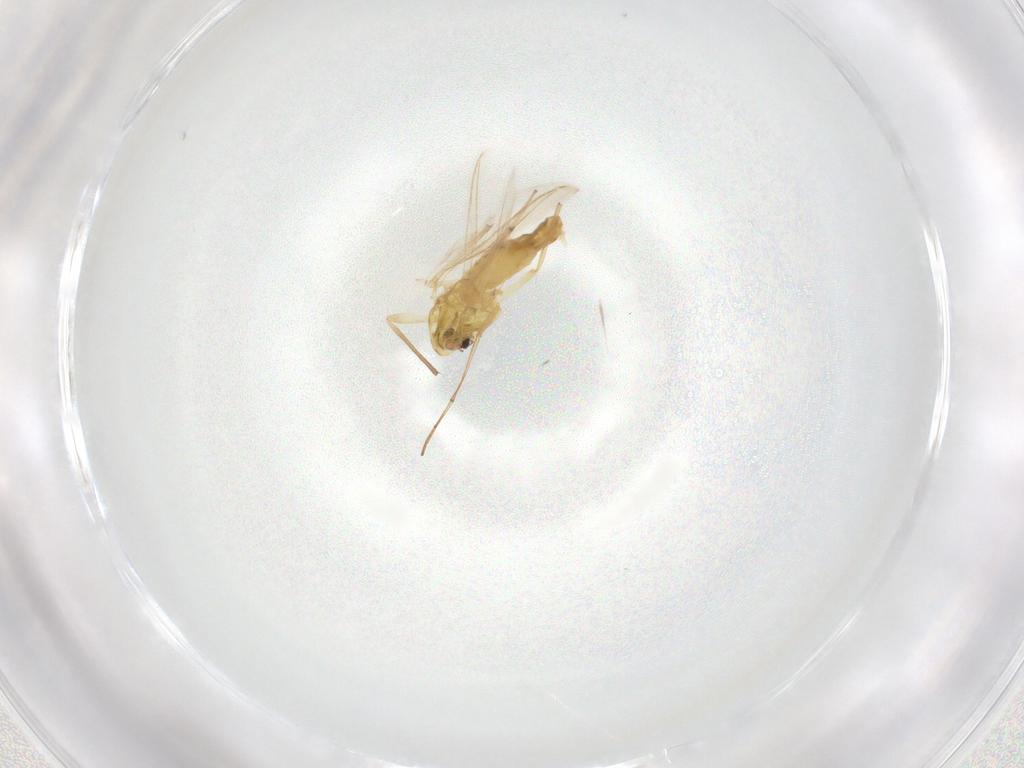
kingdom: Animalia
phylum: Arthropoda
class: Insecta
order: Diptera
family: Chironomidae
